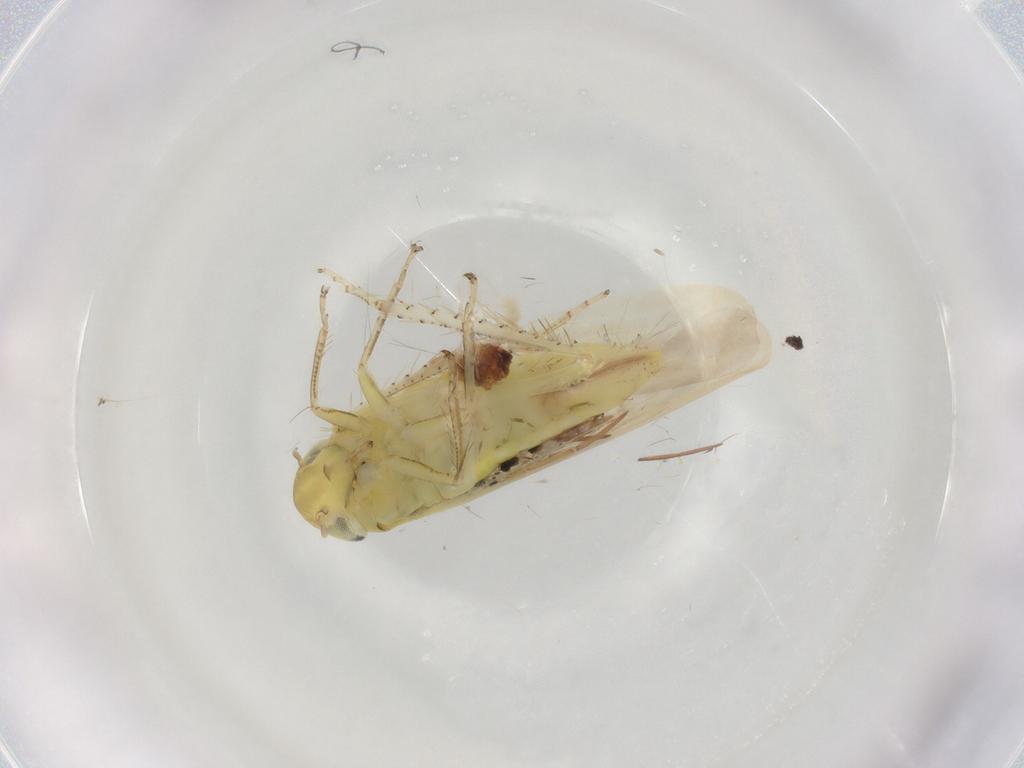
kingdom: Animalia
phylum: Arthropoda
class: Insecta
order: Hemiptera
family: Cicadellidae
